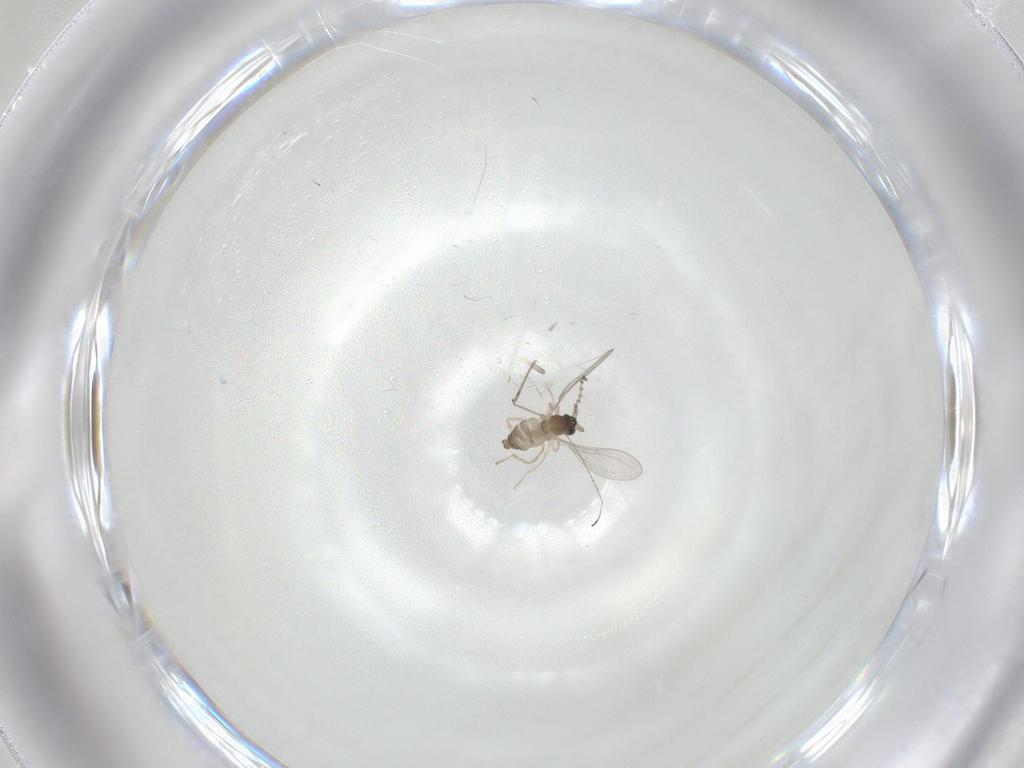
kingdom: Animalia
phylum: Arthropoda
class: Insecta
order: Diptera
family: Cecidomyiidae
